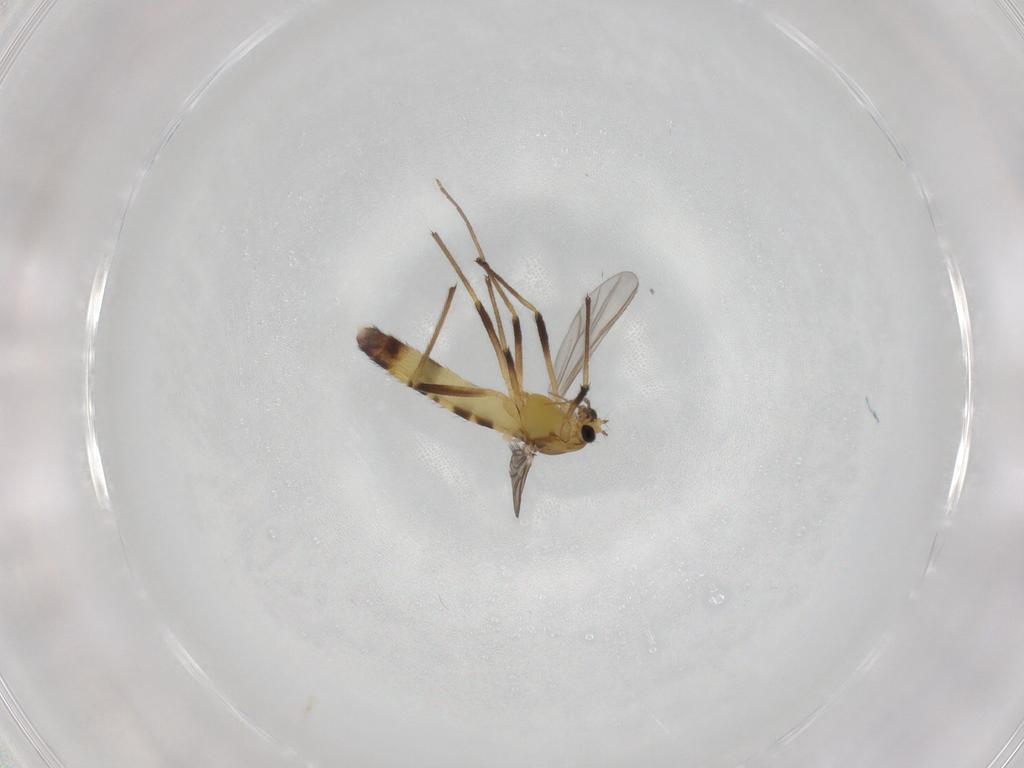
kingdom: Animalia
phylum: Arthropoda
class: Insecta
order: Diptera
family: Chironomidae
